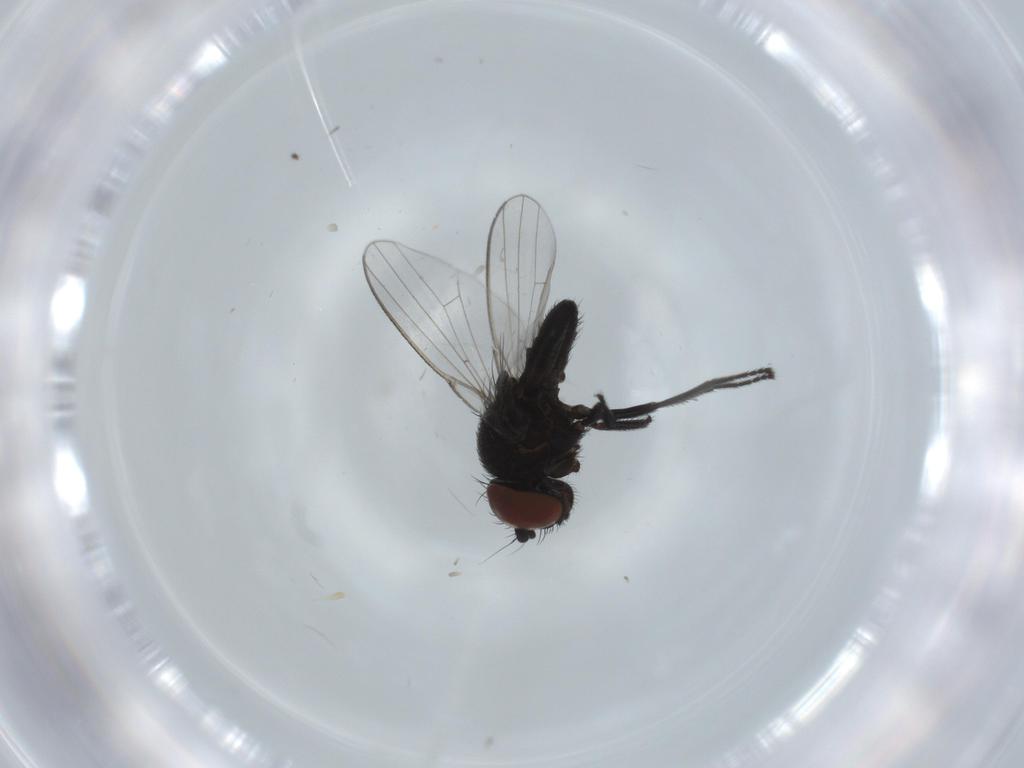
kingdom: Animalia
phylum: Arthropoda
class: Insecta
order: Diptera
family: Milichiidae
